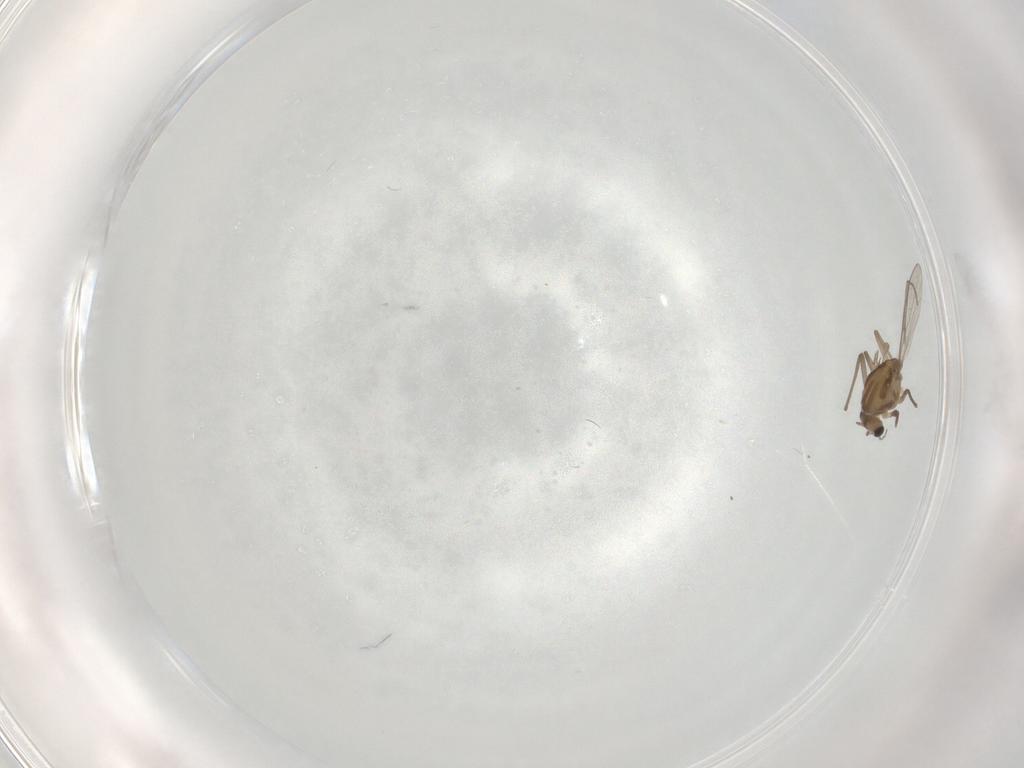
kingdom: Animalia
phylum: Arthropoda
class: Insecta
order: Diptera
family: Chironomidae
